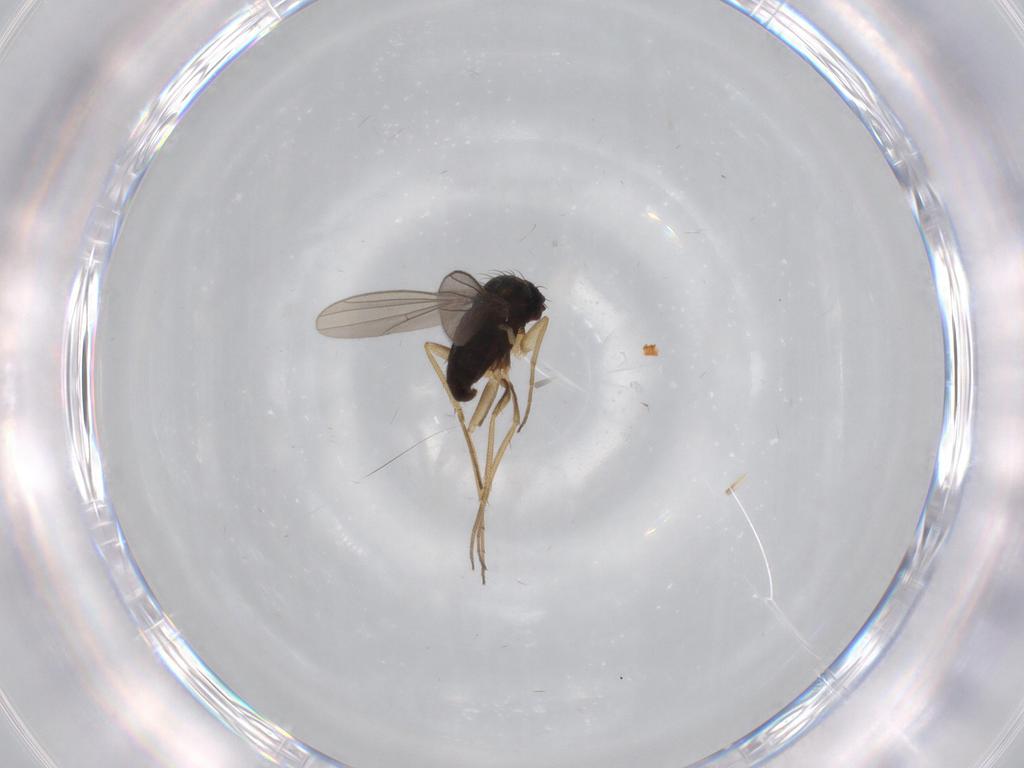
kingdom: Animalia
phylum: Arthropoda
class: Insecta
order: Diptera
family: Dolichopodidae
